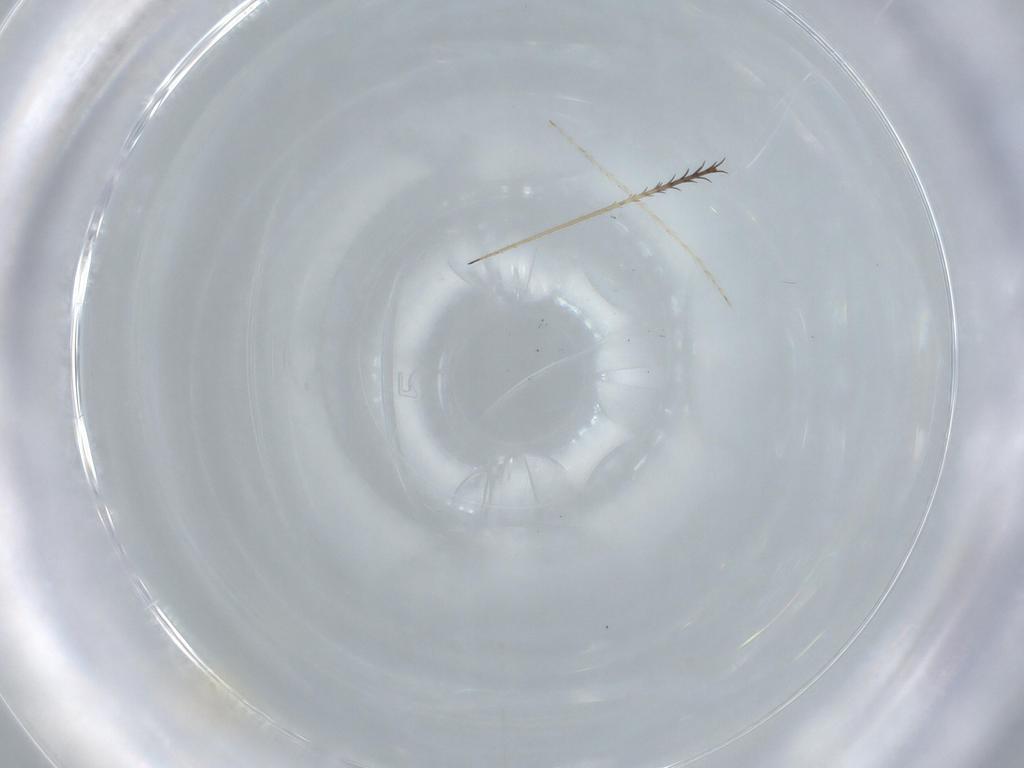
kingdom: Animalia
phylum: Arthropoda
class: Insecta
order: Diptera
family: Cecidomyiidae
